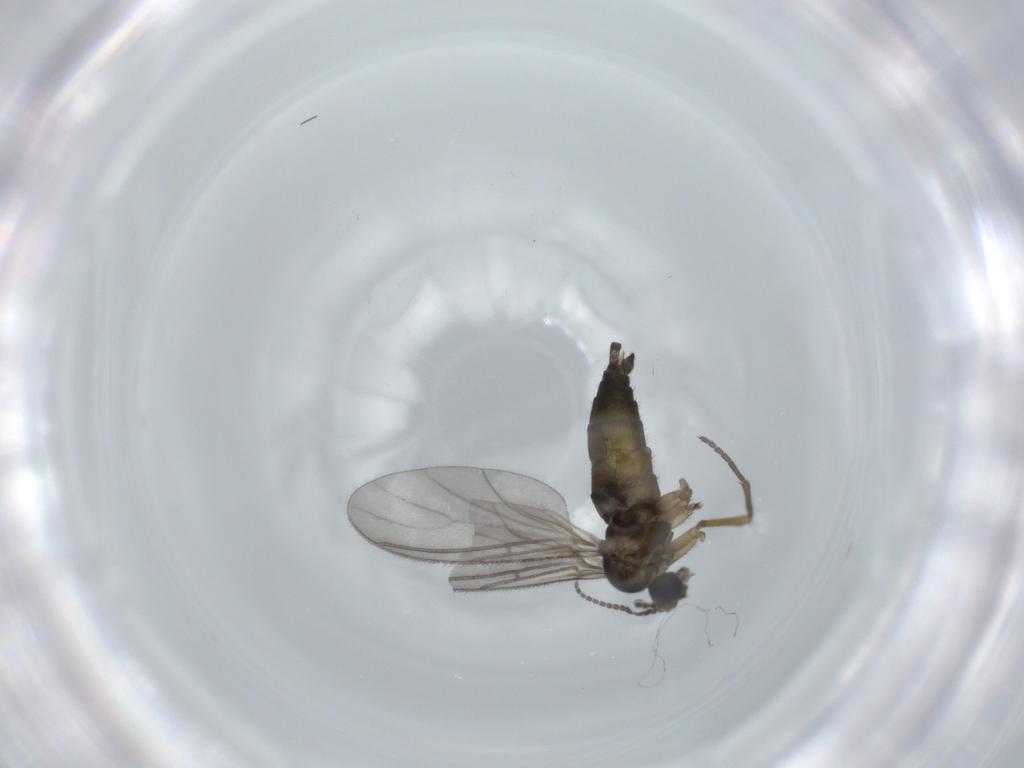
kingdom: Animalia
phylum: Arthropoda
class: Insecta
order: Diptera
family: Sciaridae
